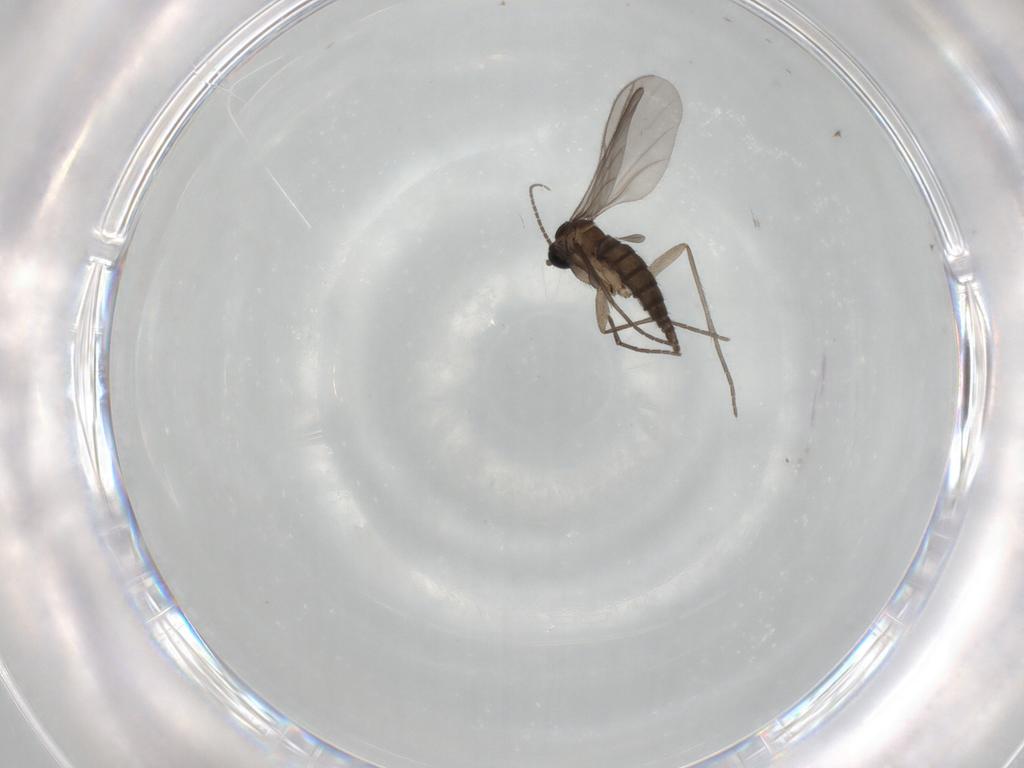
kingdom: Animalia
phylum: Arthropoda
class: Insecta
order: Diptera
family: Sciaridae
